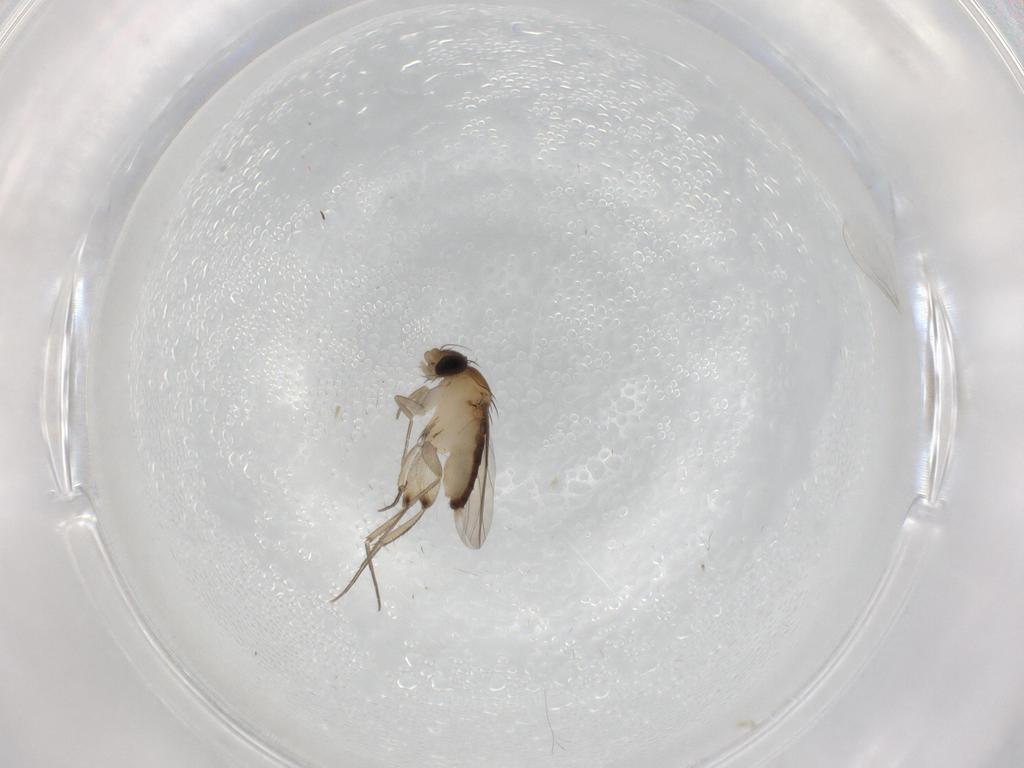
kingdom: Animalia
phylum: Arthropoda
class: Insecta
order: Diptera
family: Phoridae
